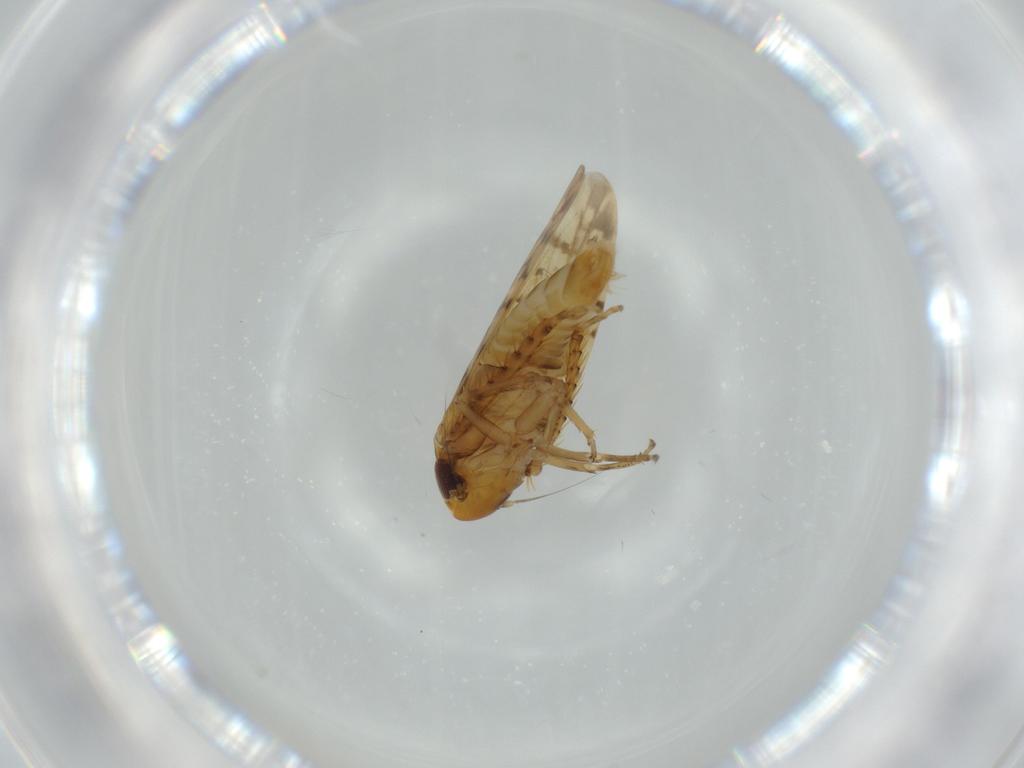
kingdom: Animalia
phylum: Arthropoda
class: Insecta
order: Hemiptera
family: Cicadellidae
